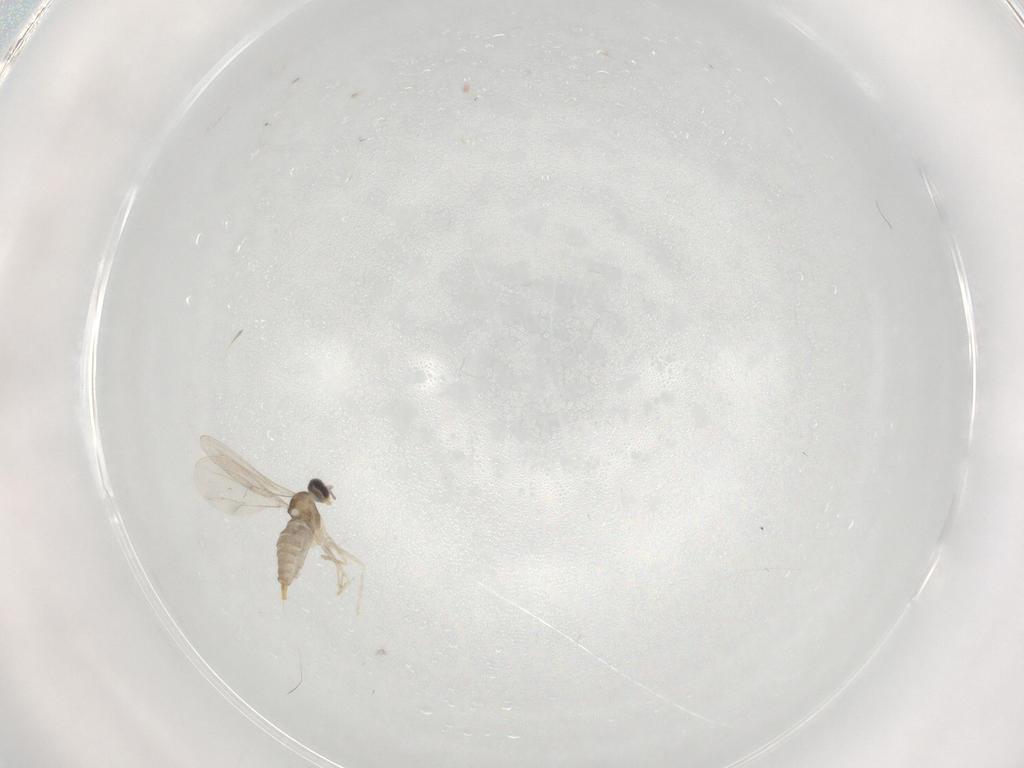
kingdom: Animalia
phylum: Arthropoda
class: Insecta
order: Diptera
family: Cecidomyiidae
